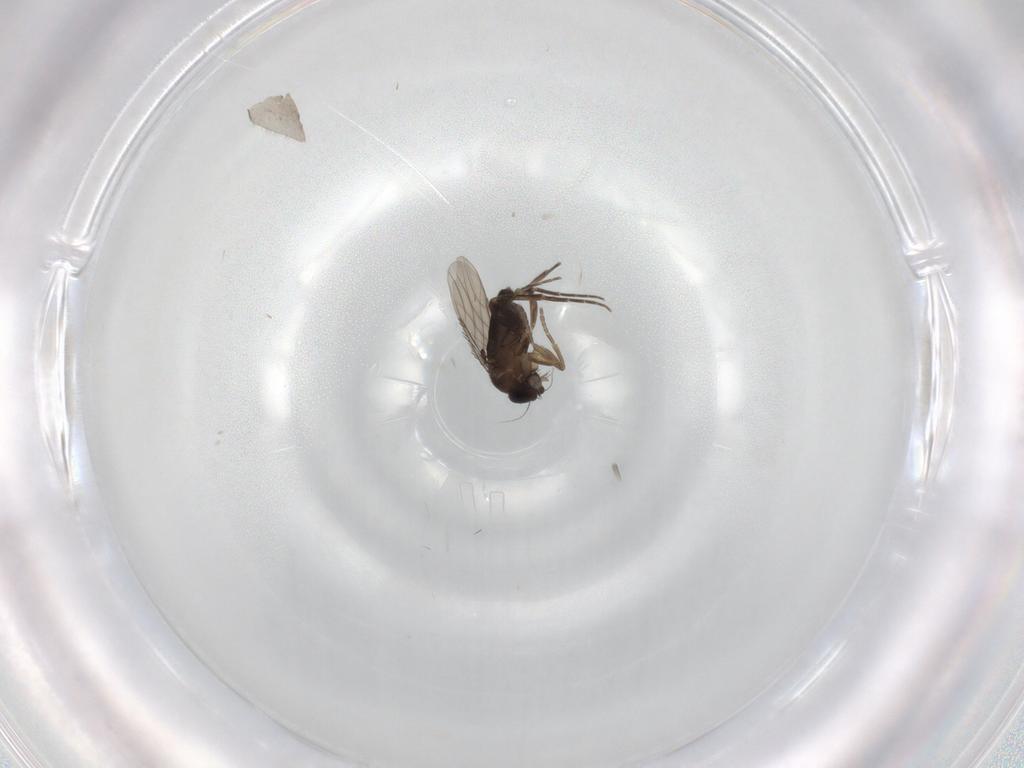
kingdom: Animalia
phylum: Arthropoda
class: Insecta
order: Diptera
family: Phoridae
